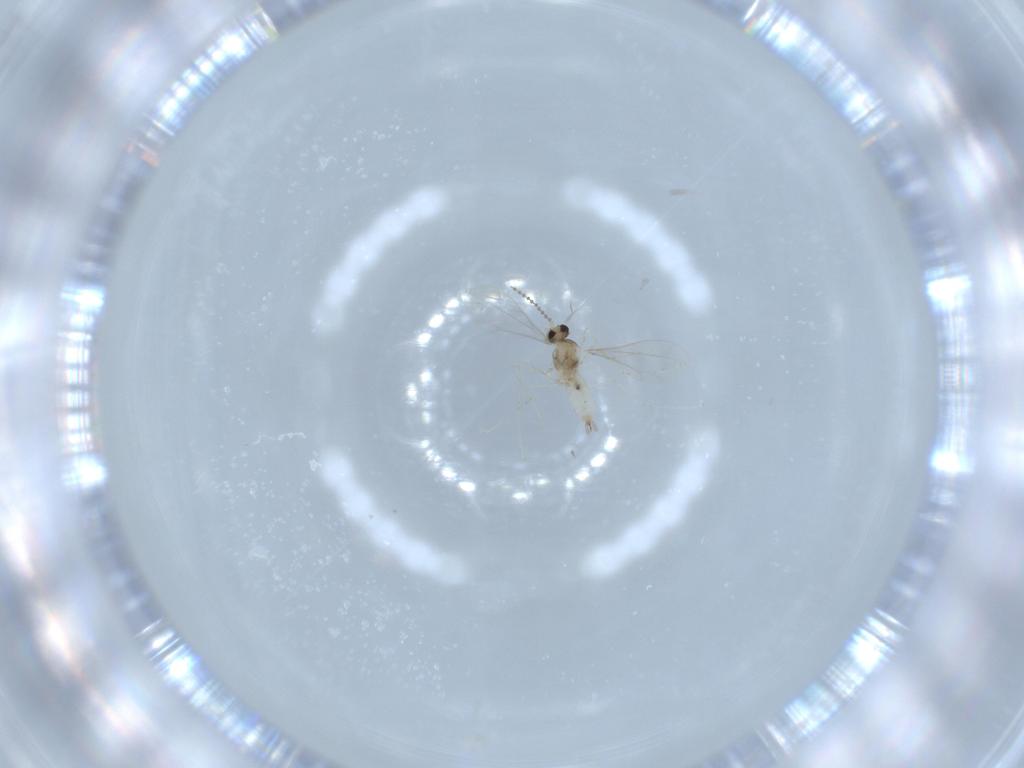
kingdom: Animalia
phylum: Arthropoda
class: Insecta
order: Diptera
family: Cecidomyiidae
